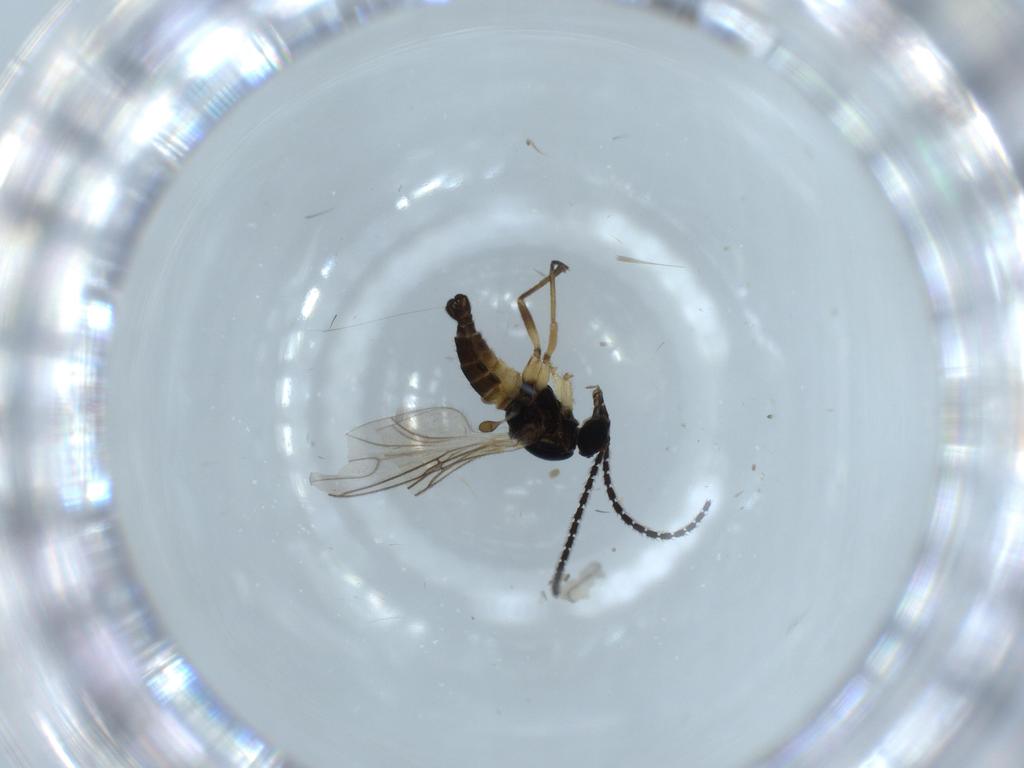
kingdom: Animalia
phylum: Arthropoda
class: Insecta
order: Diptera
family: Sciaridae
